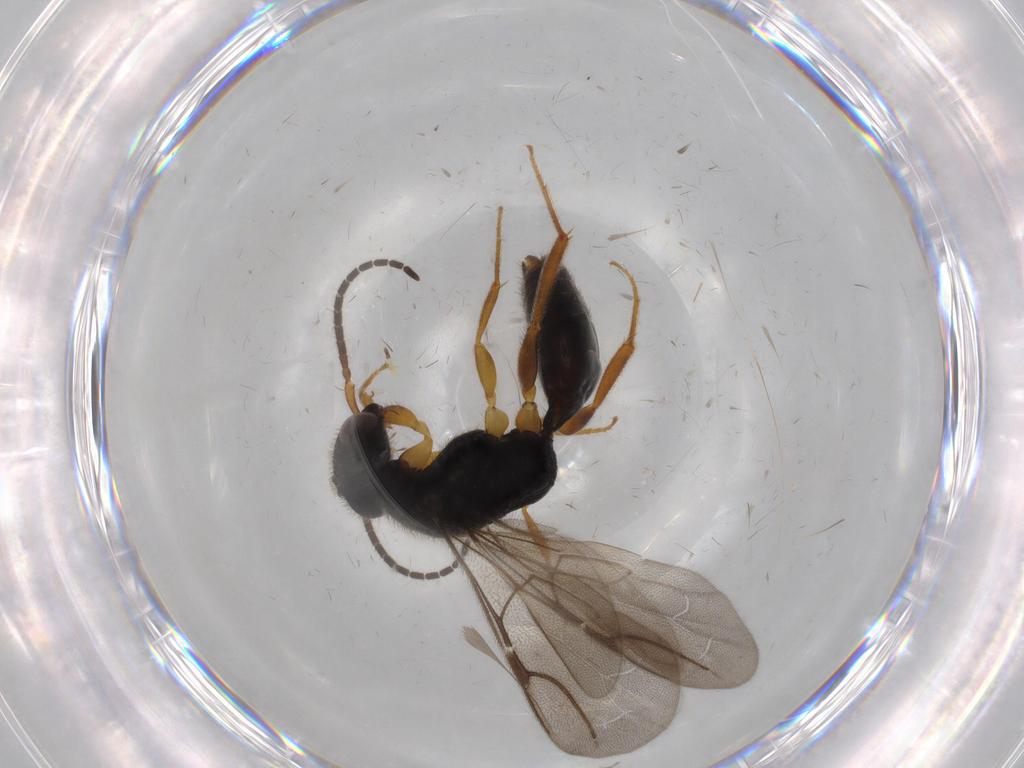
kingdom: Animalia
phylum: Arthropoda
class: Insecta
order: Hymenoptera
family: Bethylidae
